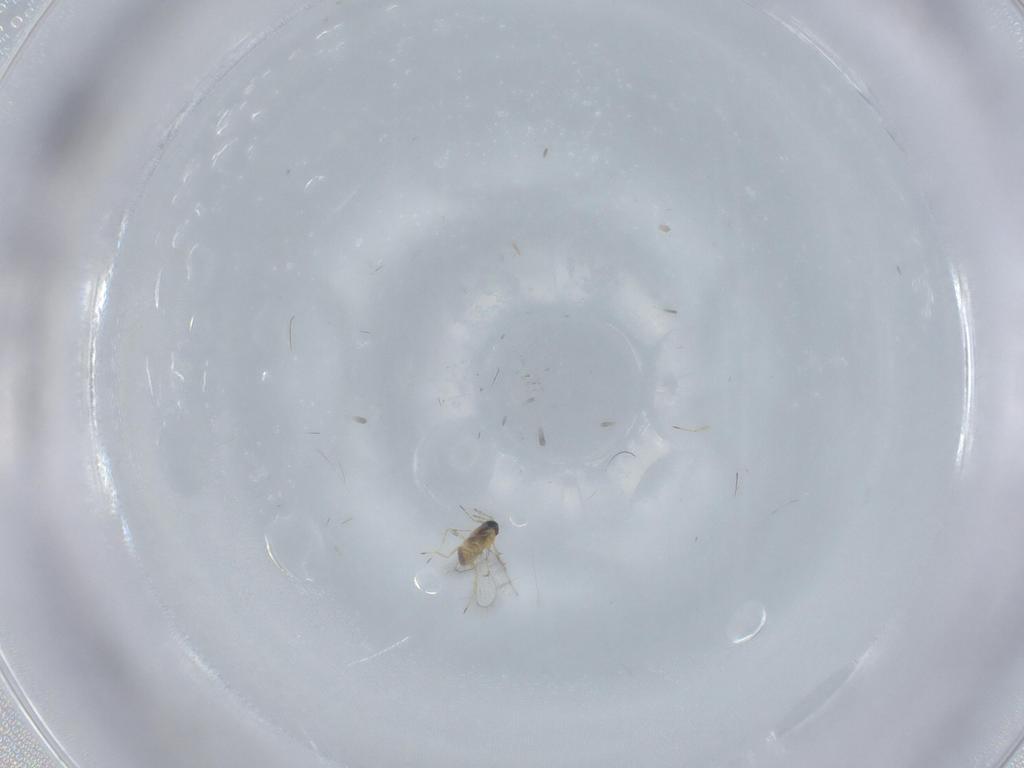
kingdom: Animalia
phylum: Arthropoda
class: Insecta
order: Hymenoptera
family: Trichogrammatidae
